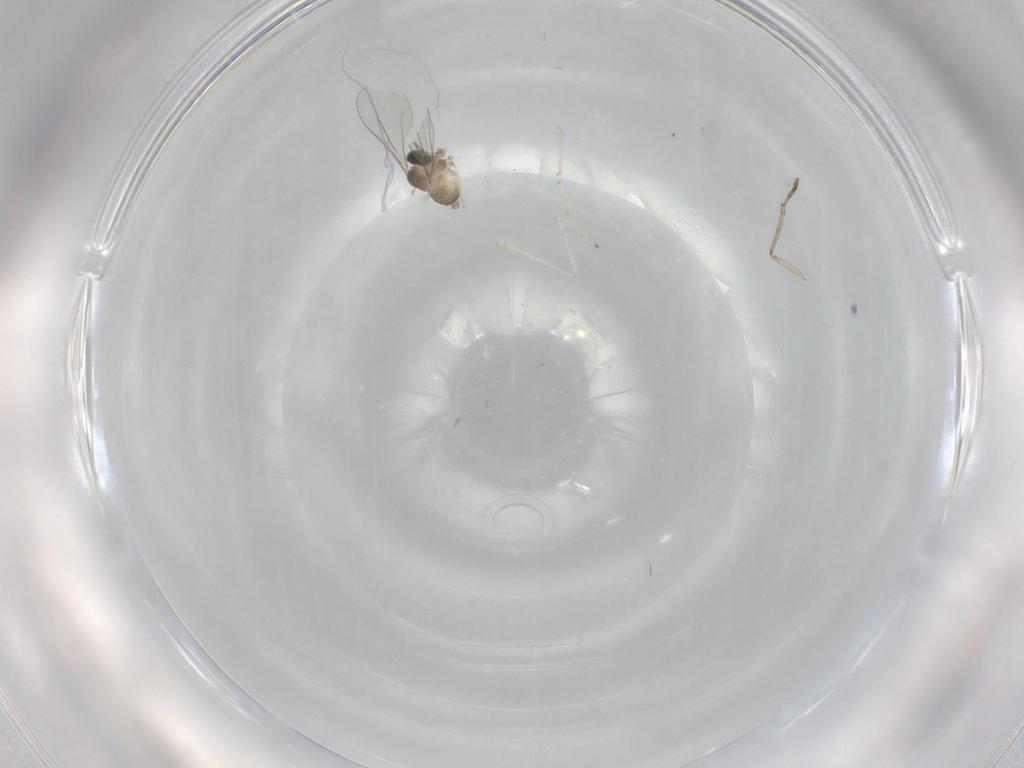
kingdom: Animalia
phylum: Arthropoda
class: Insecta
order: Diptera
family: Cecidomyiidae
